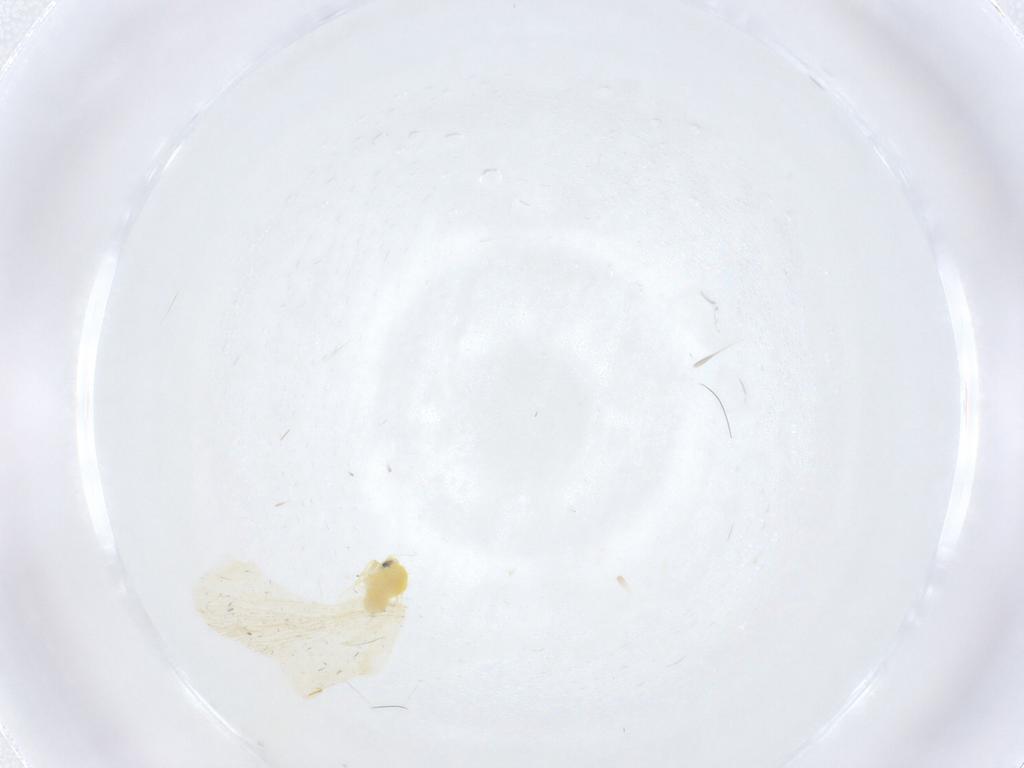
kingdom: Animalia
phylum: Arthropoda
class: Insecta
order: Hemiptera
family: Aleyrodidae
